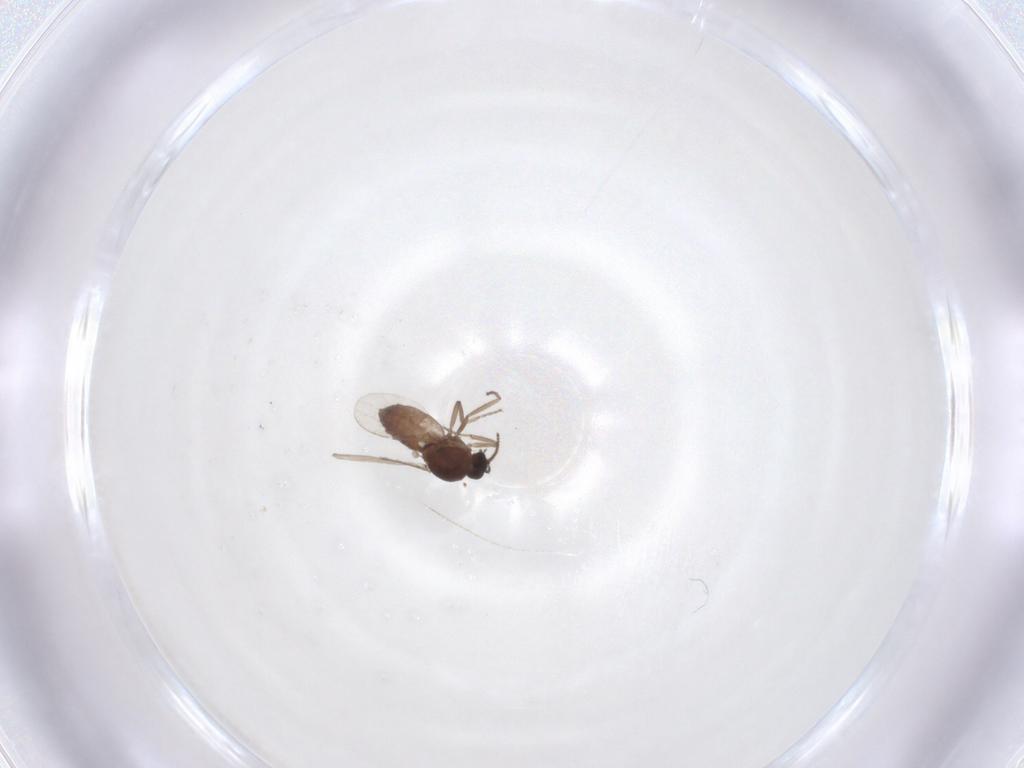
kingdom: Animalia
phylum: Arthropoda
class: Insecta
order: Diptera
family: Ceratopogonidae
